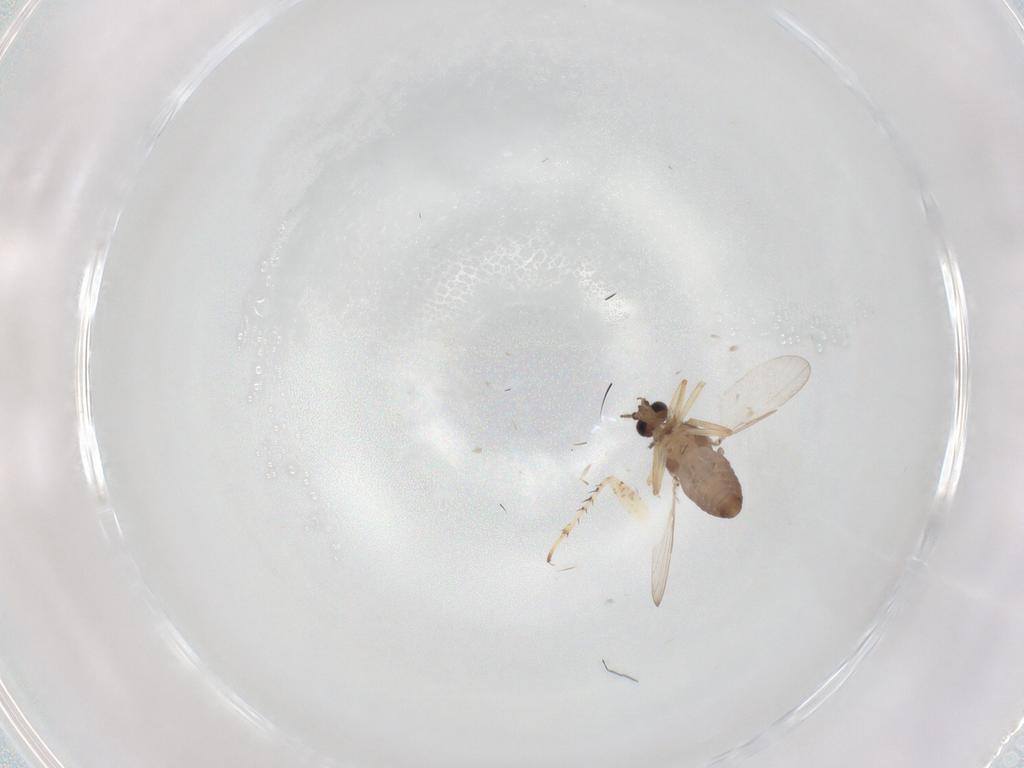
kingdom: Animalia
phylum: Arthropoda
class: Insecta
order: Diptera
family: Ceratopogonidae
